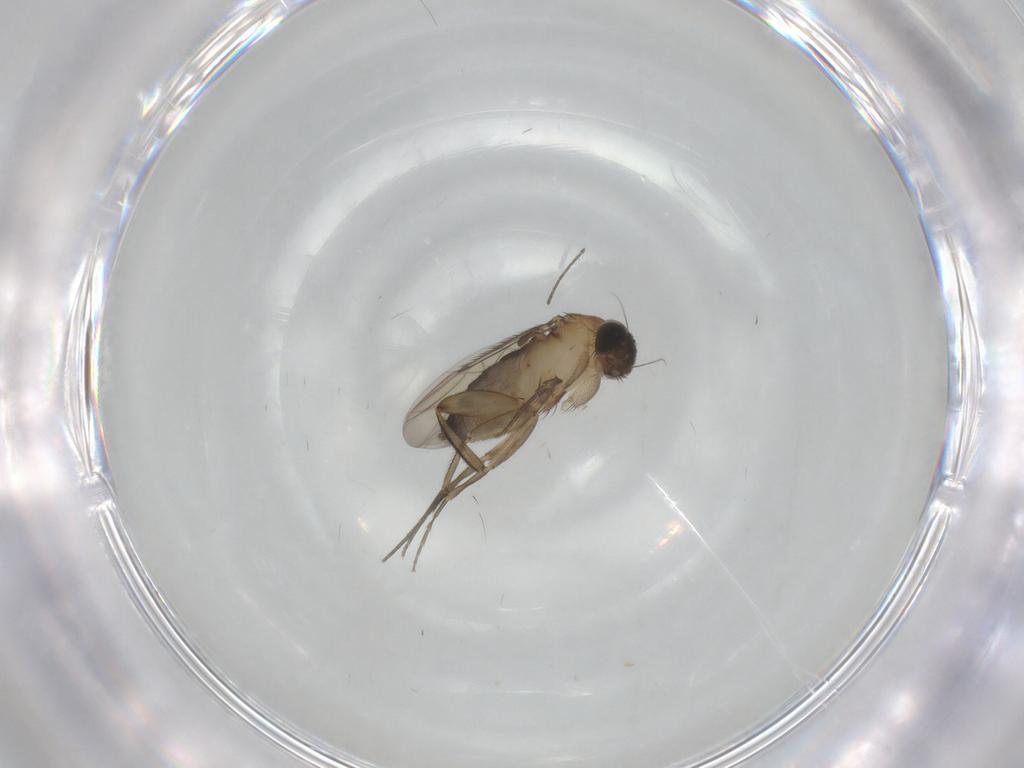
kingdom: Animalia
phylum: Arthropoda
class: Insecta
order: Diptera
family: Phoridae
